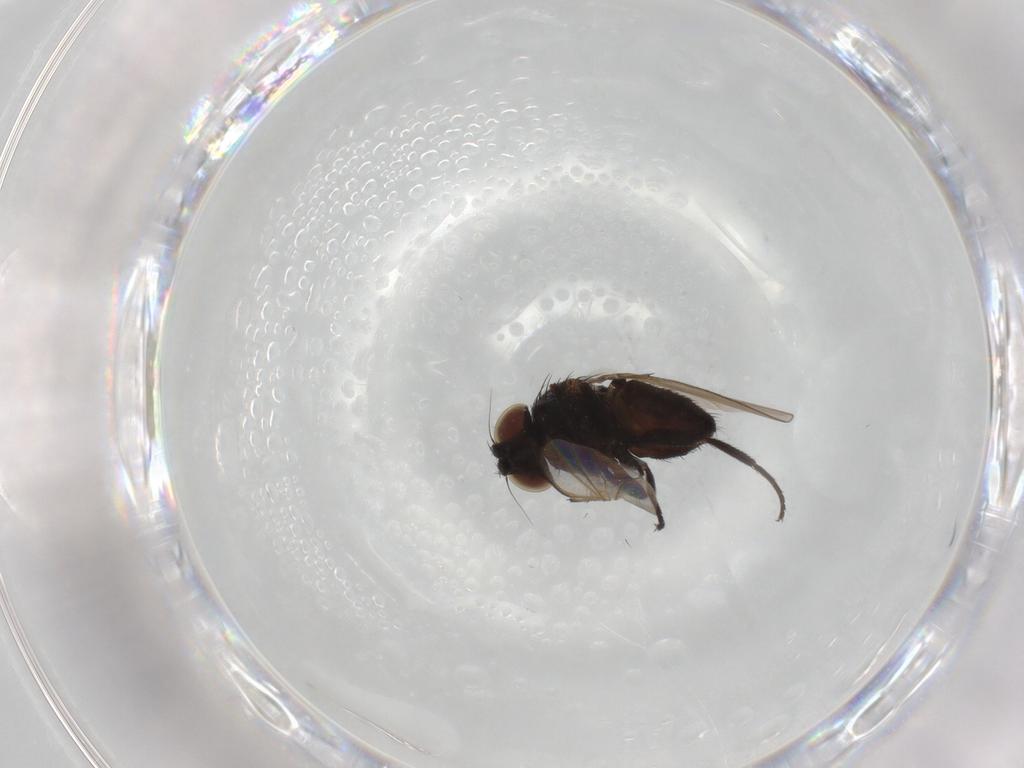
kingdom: Animalia
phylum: Arthropoda
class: Insecta
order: Diptera
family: Milichiidae
